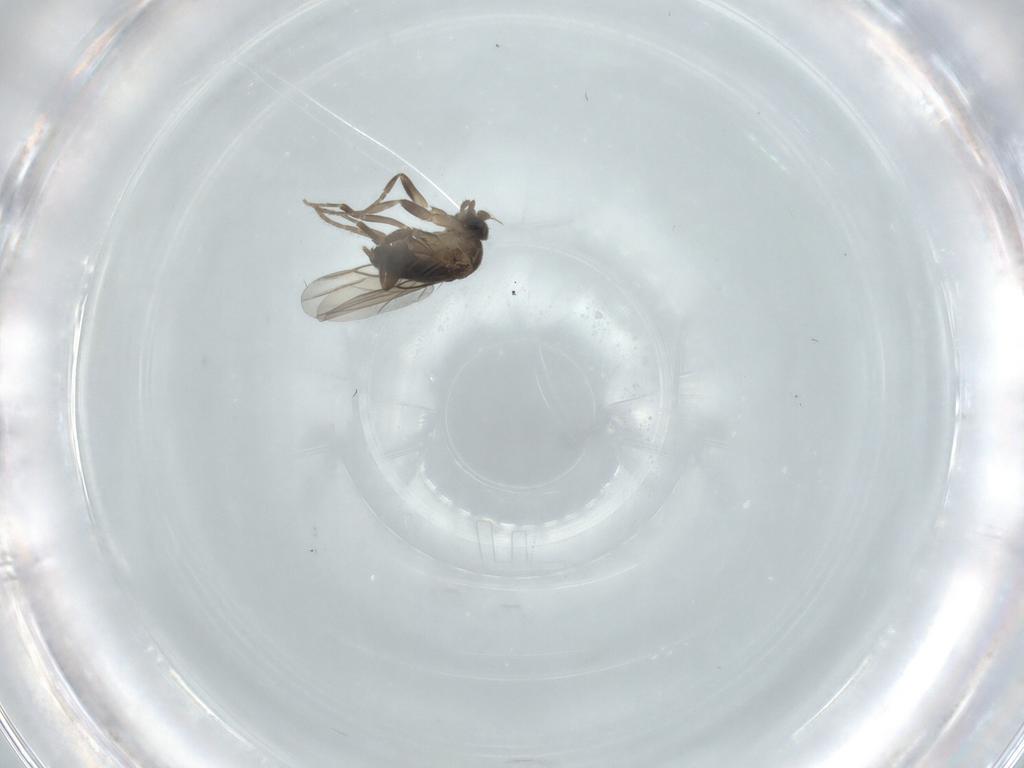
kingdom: Animalia
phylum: Arthropoda
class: Insecta
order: Diptera
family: Phoridae
